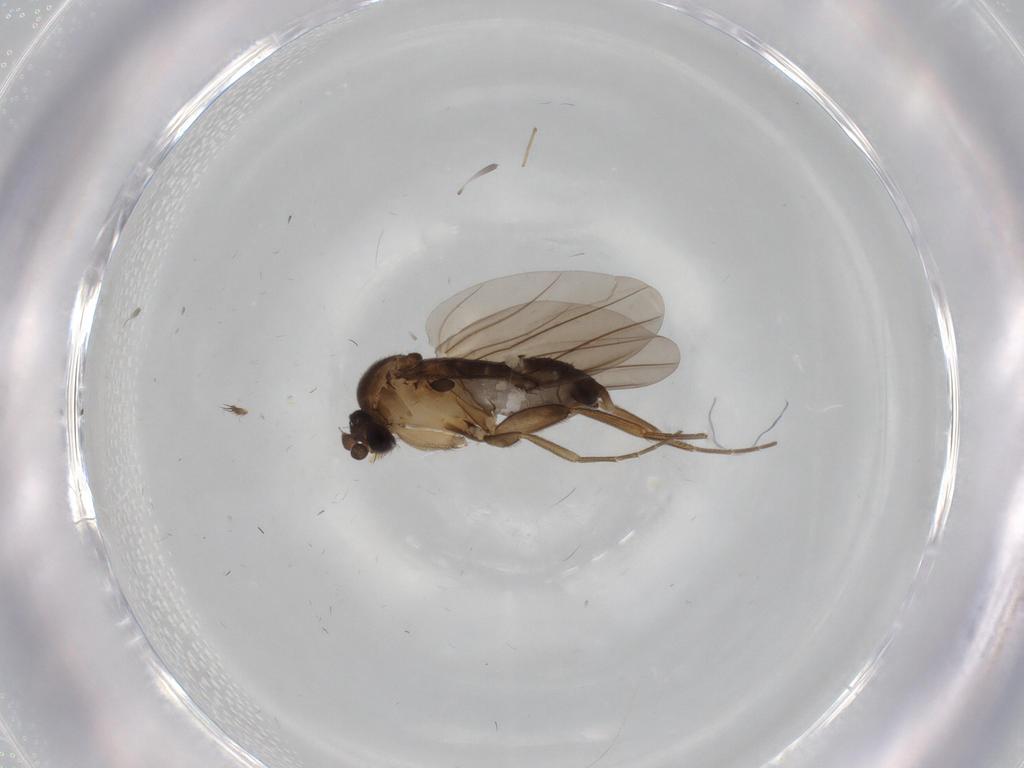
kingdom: Animalia
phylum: Arthropoda
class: Insecta
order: Diptera
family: Phoridae
